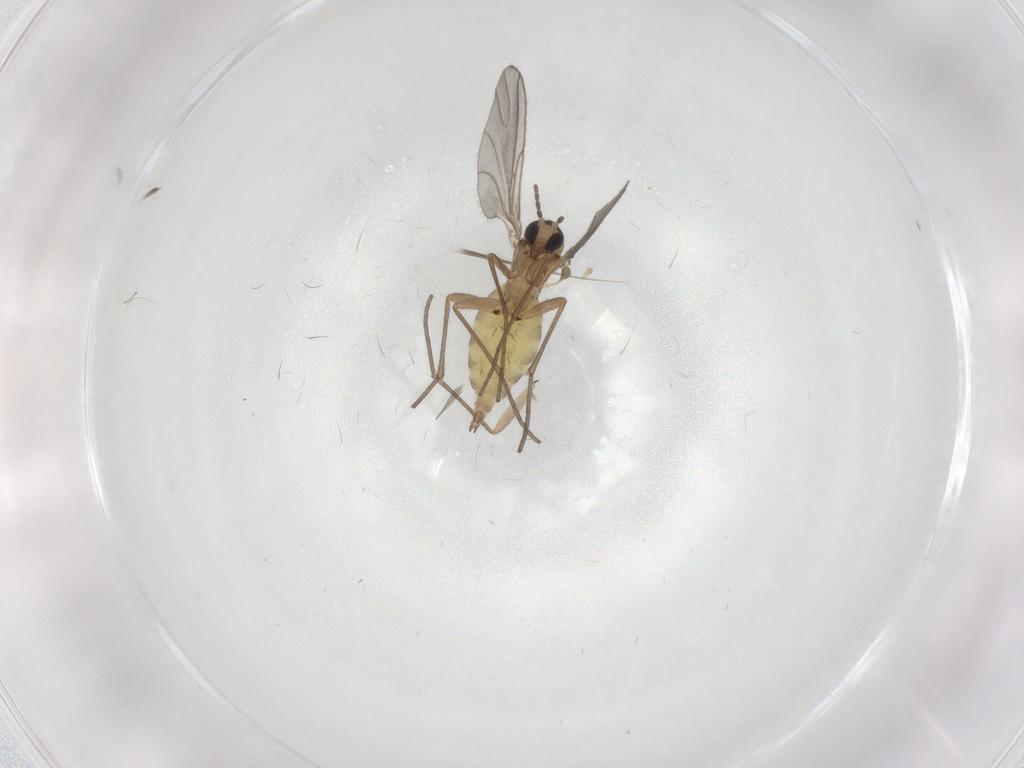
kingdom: Animalia
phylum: Arthropoda
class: Insecta
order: Diptera
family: Sciaridae
